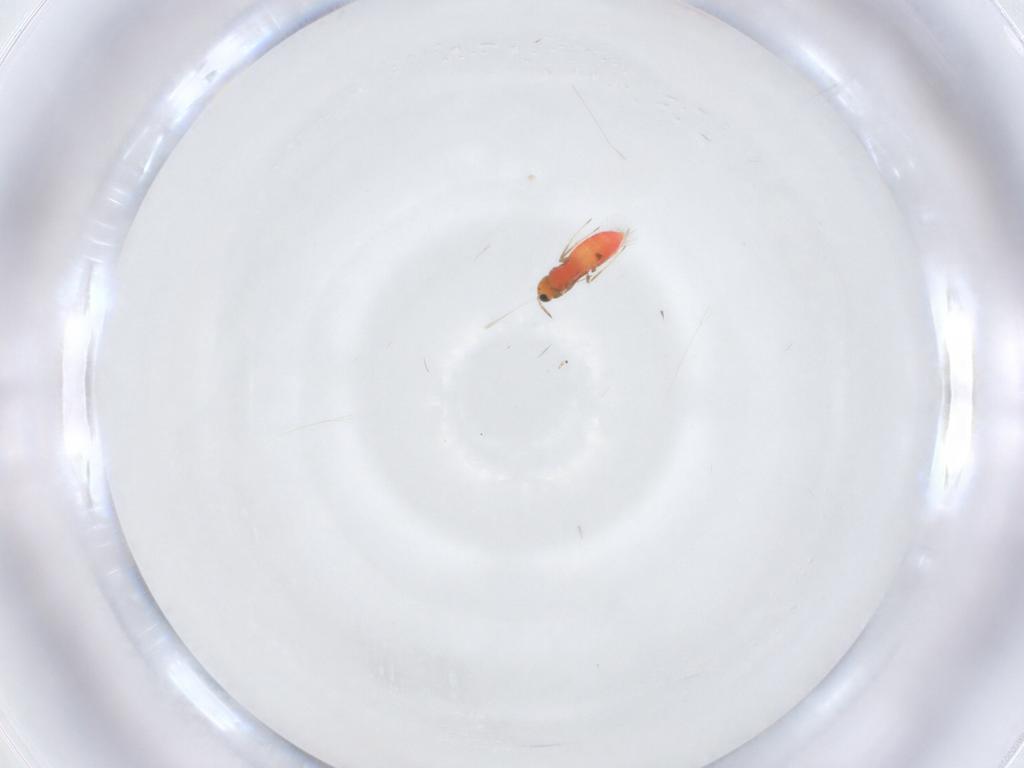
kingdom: Animalia
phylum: Arthropoda
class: Insecta
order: Hymenoptera
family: Trichogrammatidae
